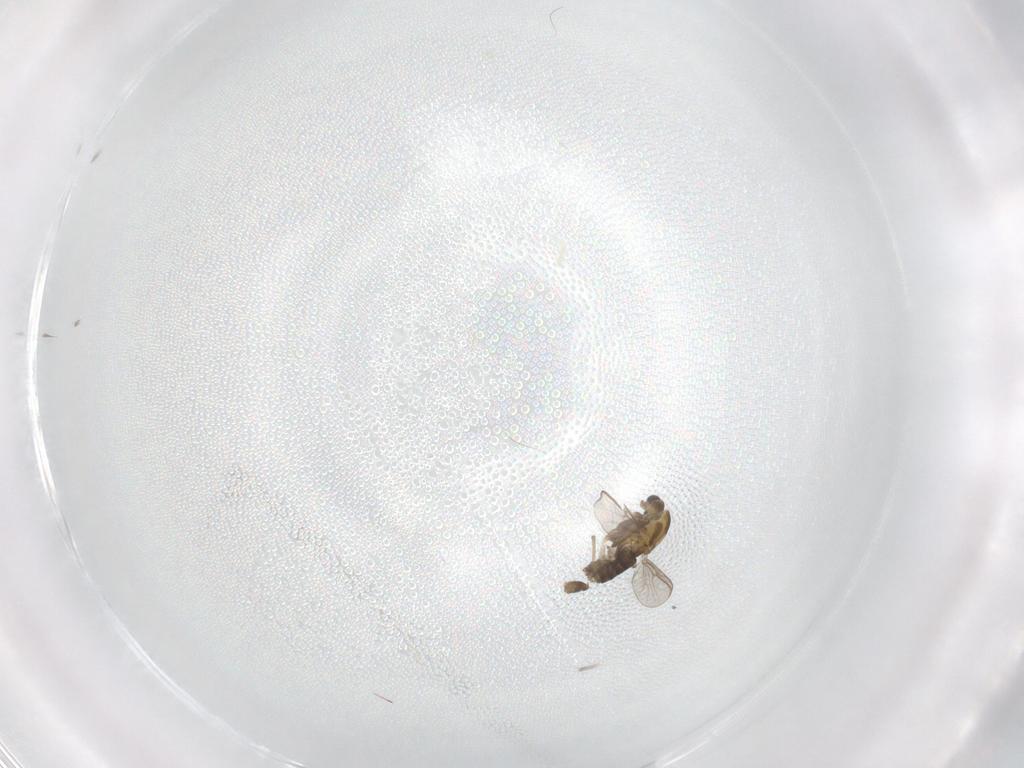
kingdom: Animalia
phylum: Arthropoda
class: Insecta
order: Diptera
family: Chironomidae
